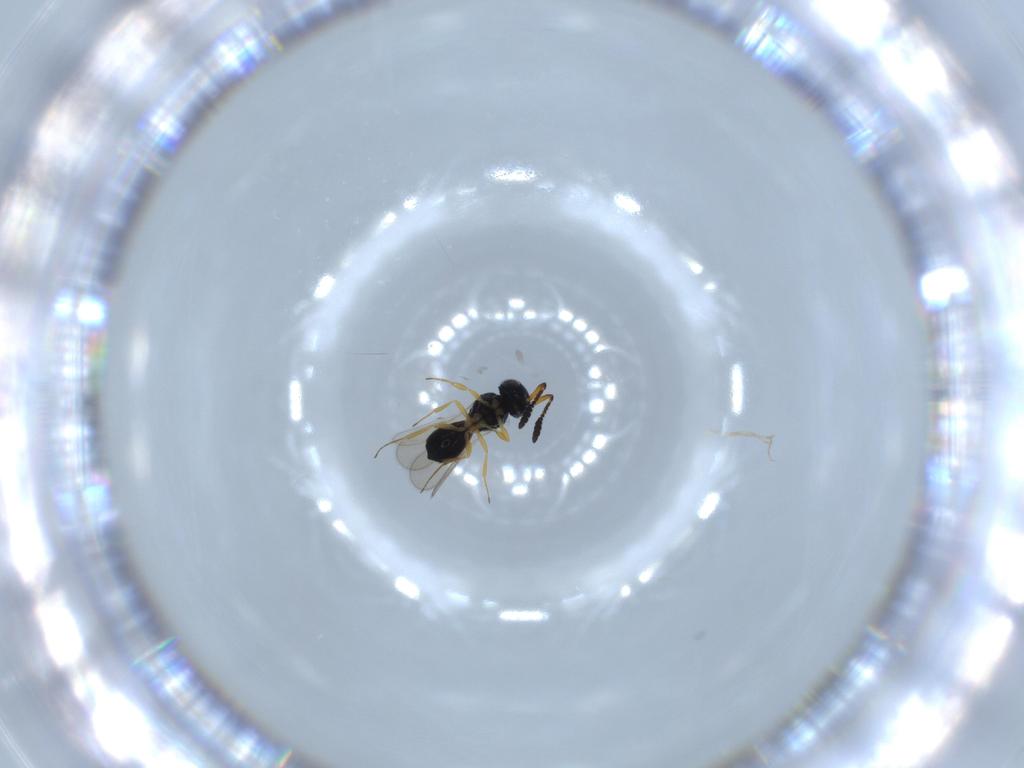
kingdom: Animalia
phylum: Arthropoda
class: Insecta
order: Hymenoptera
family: Scelionidae
